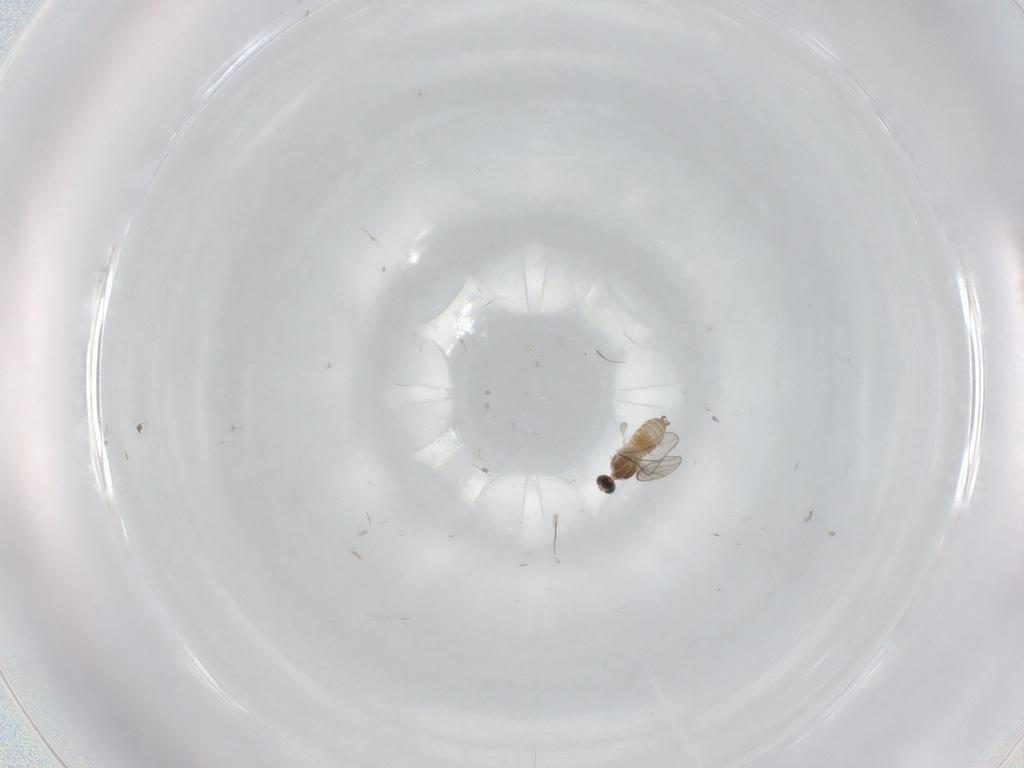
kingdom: Animalia
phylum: Arthropoda
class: Insecta
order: Diptera
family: Cecidomyiidae
